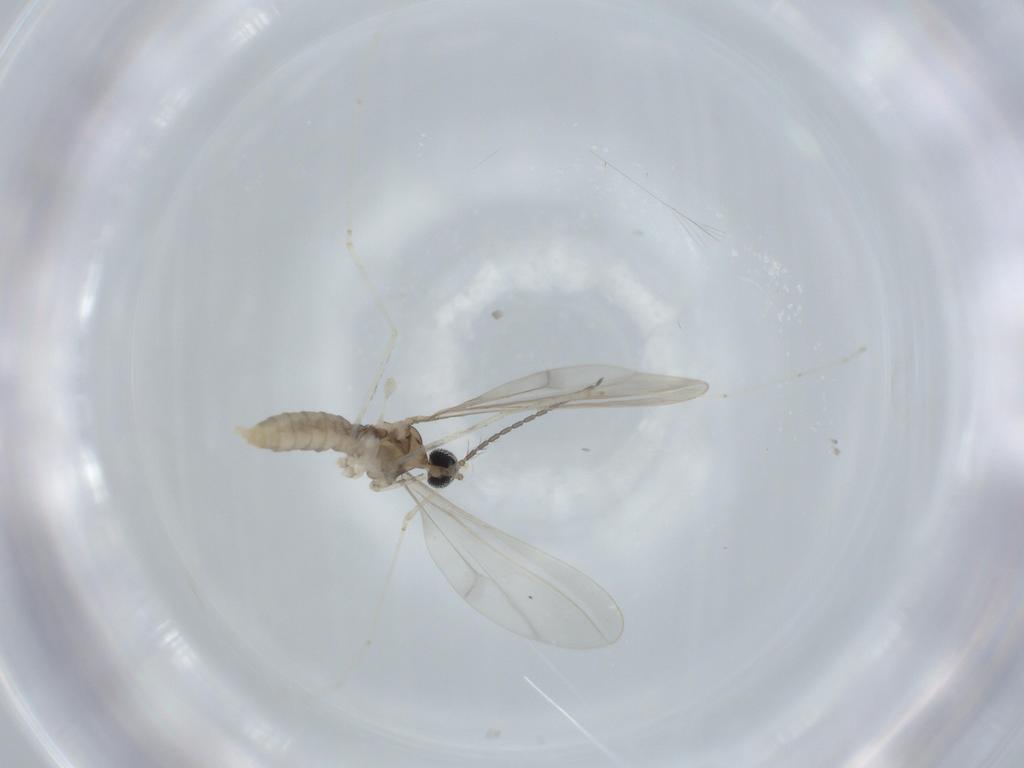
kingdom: Animalia
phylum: Arthropoda
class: Insecta
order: Diptera
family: Cecidomyiidae
